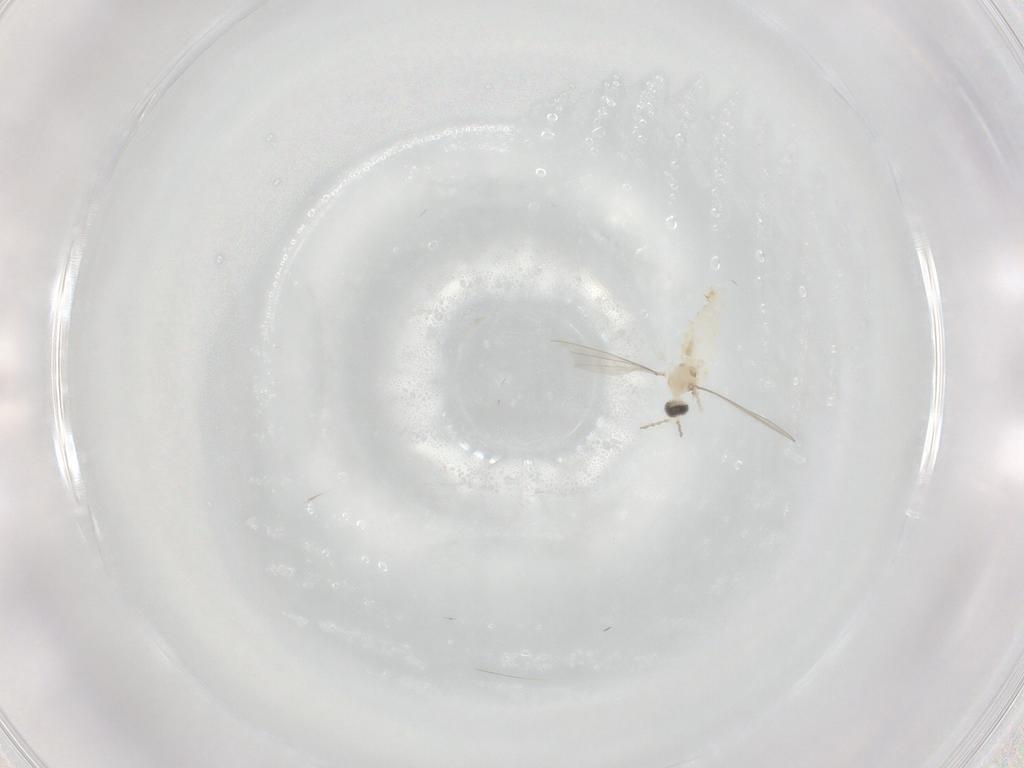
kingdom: Animalia
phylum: Arthropoda
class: Insecta
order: Diptera
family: Cecidomyiidae
